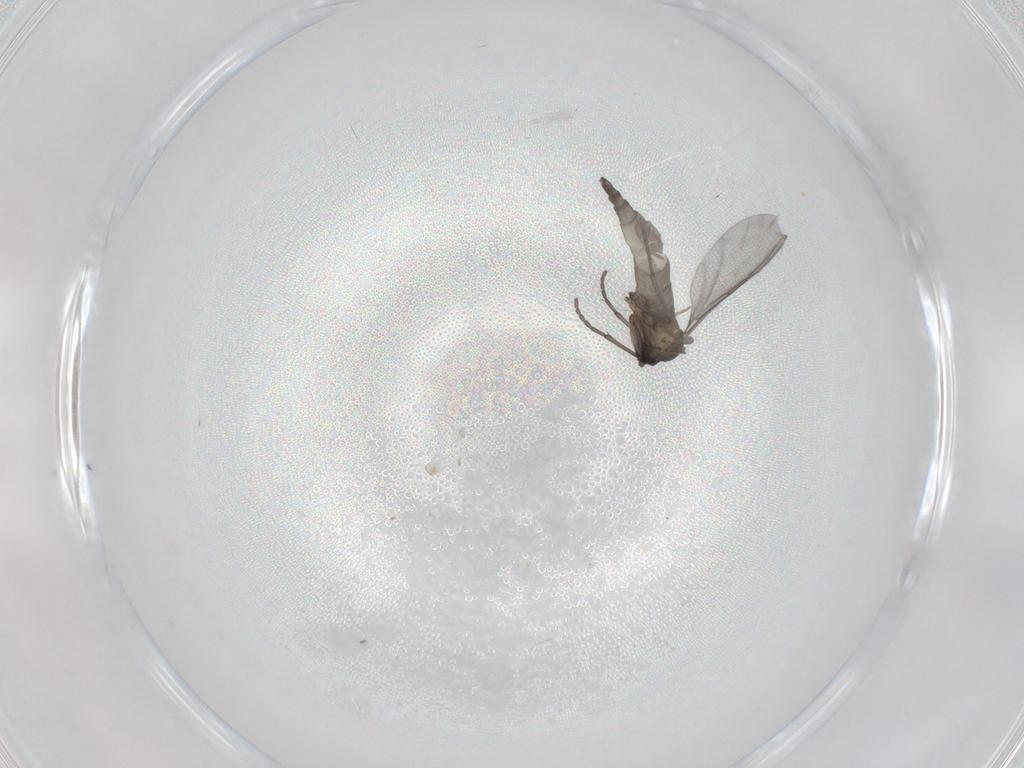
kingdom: Animalia
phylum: Arthropoda
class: Insecta
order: Diptera
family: Sciaridae
